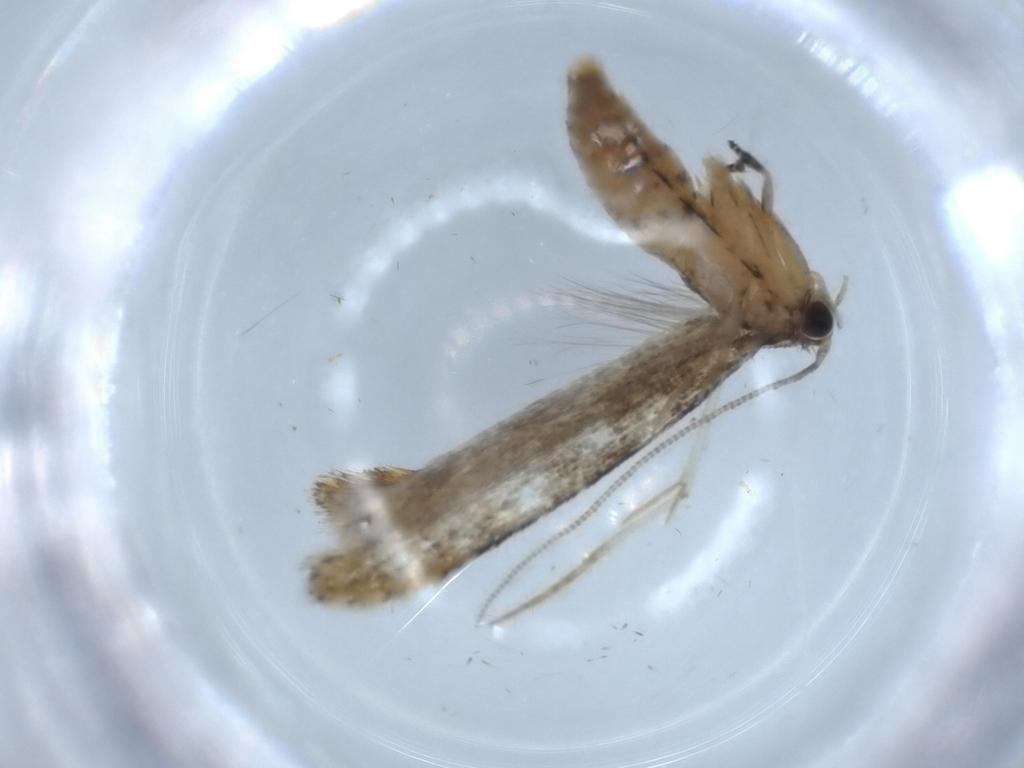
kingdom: Animalia
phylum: Arthropoda
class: Insecta
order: Lepidoptera
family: Tineidae
